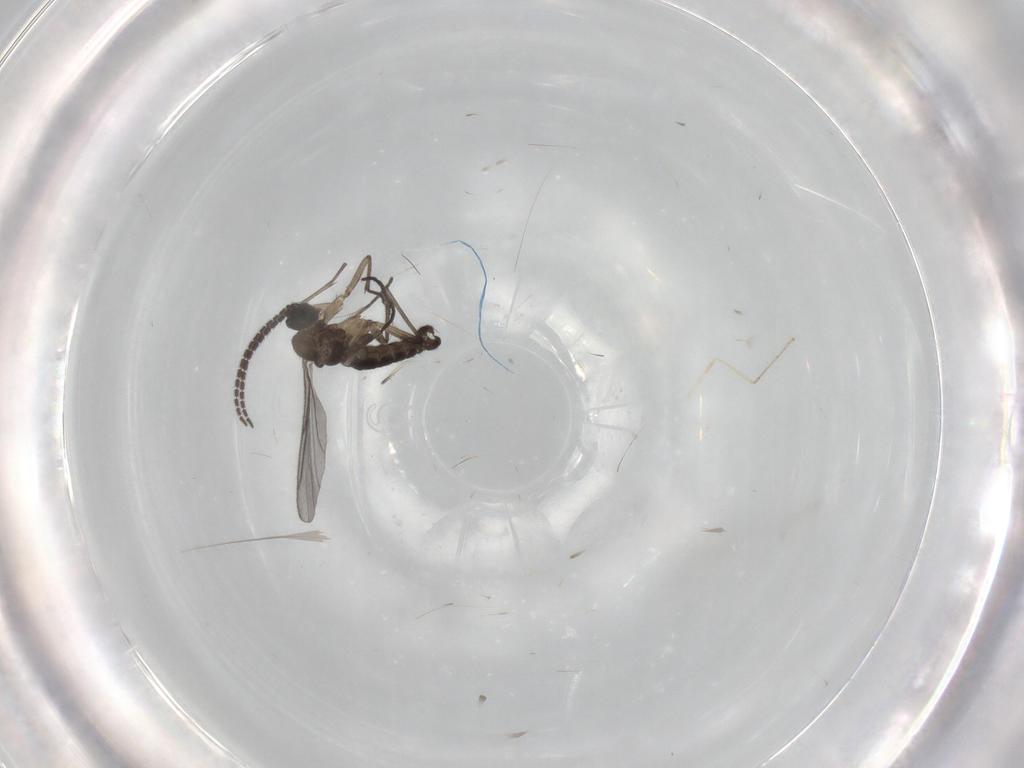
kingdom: Animalia
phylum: Arthropoda
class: Insecta
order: Diptera
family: Sciaridae
